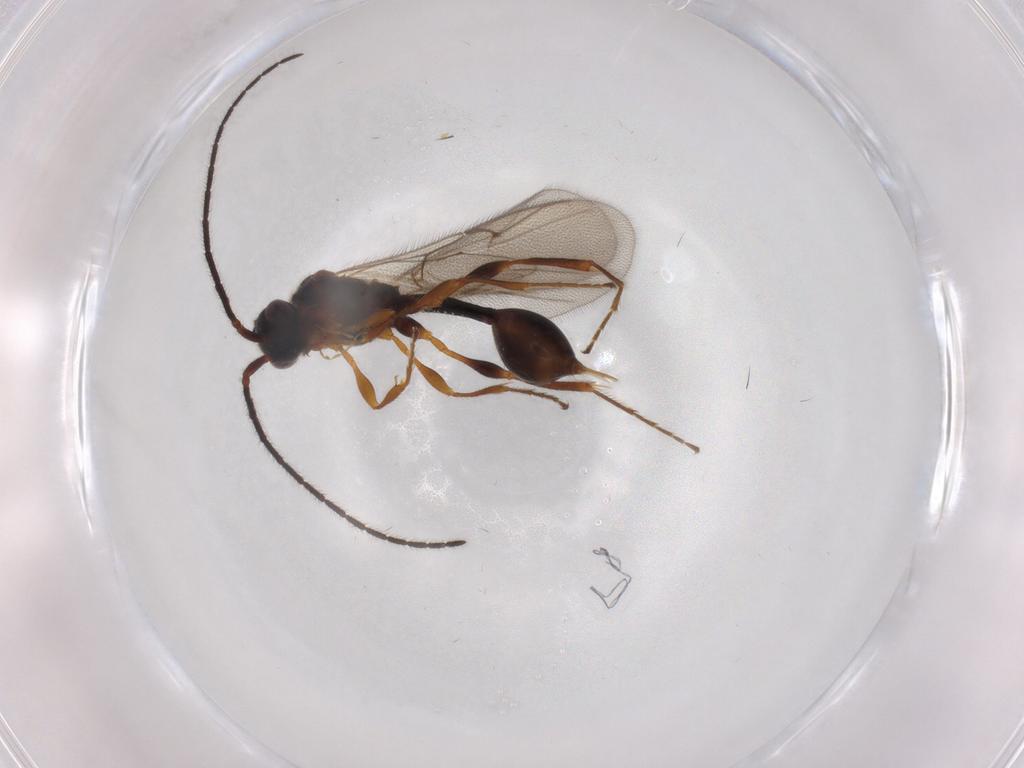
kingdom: Animalia
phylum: Arthropoda
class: Insecta
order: Hymenoptera
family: Diapriidae
